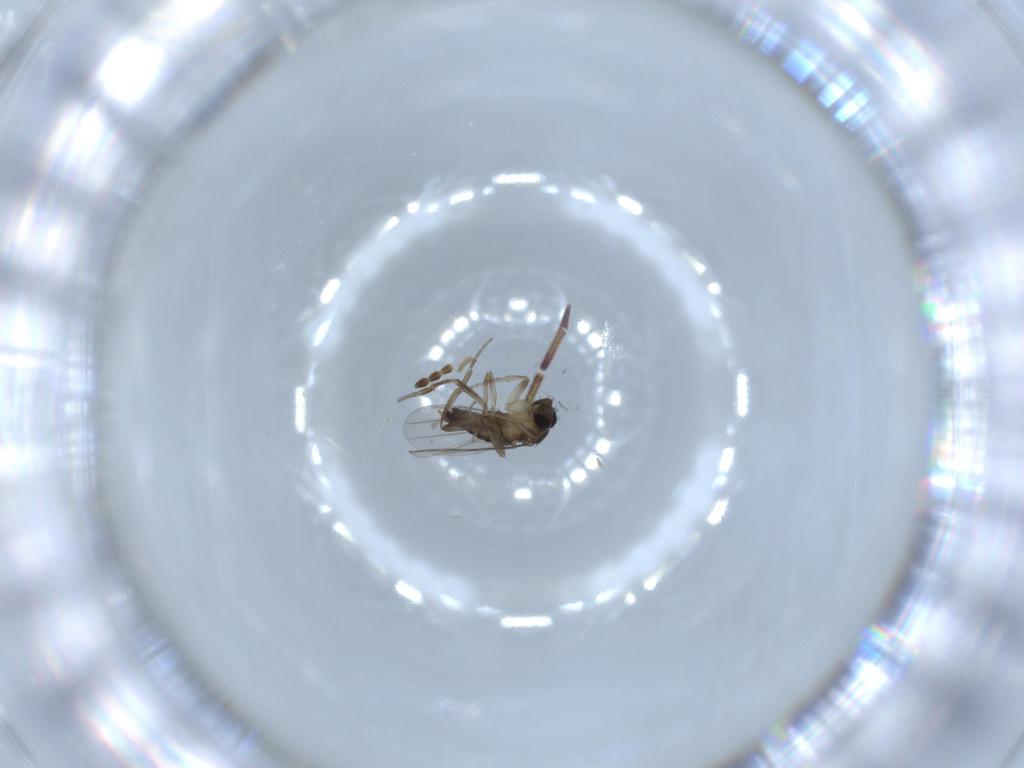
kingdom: Animalia
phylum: Arthropoda
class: Insecta
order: Diptera
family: Phoridae
